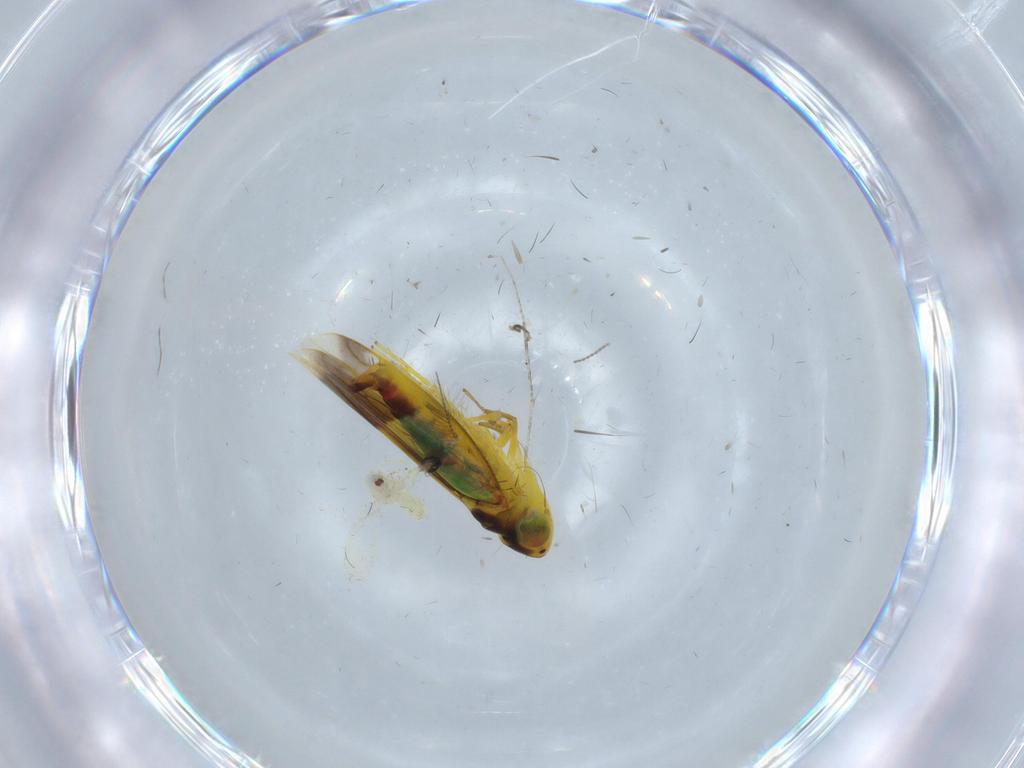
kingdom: Animalia
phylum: Arthropoda
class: Insecta
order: Hemiptera
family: Cicadellidae
